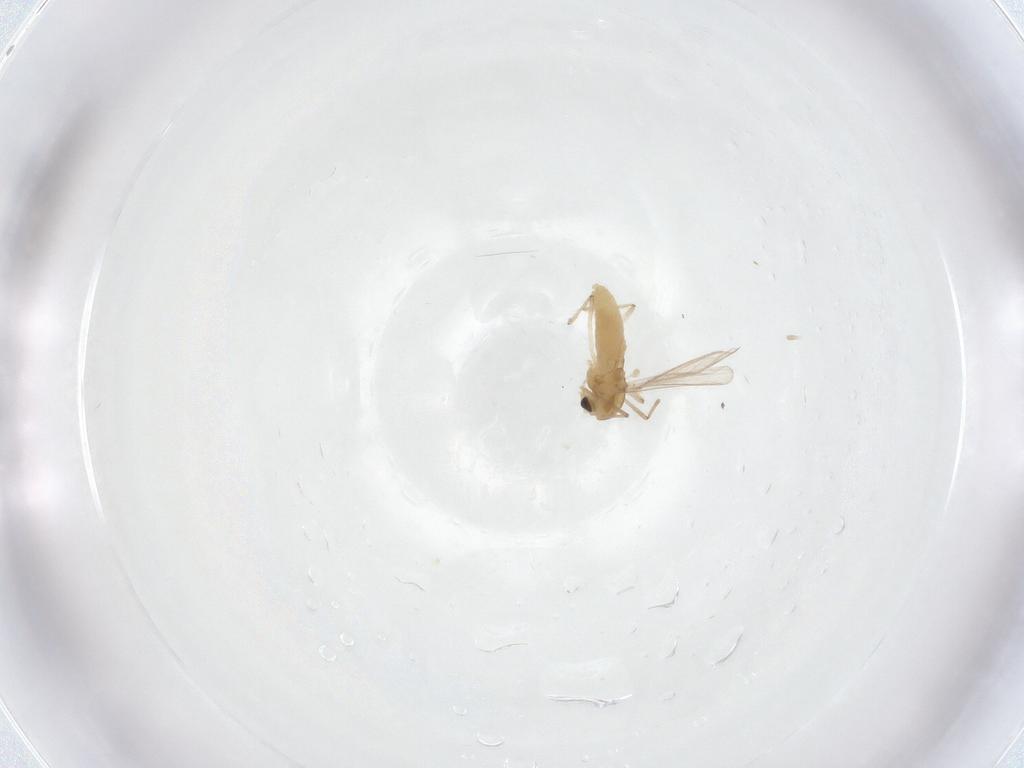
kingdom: Animalia
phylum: Arthropoda
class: Insecta
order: Diptera
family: Chironomidae
